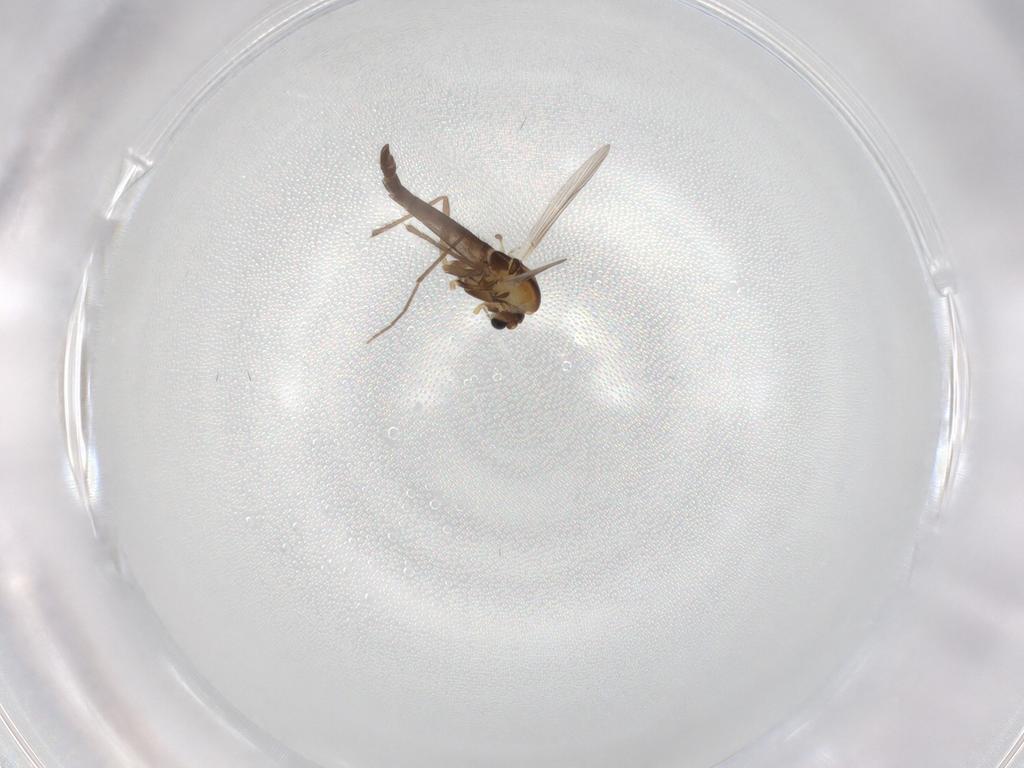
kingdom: Animalia
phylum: Arthropoda
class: Insecta
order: Diptera
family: Chironomidae
